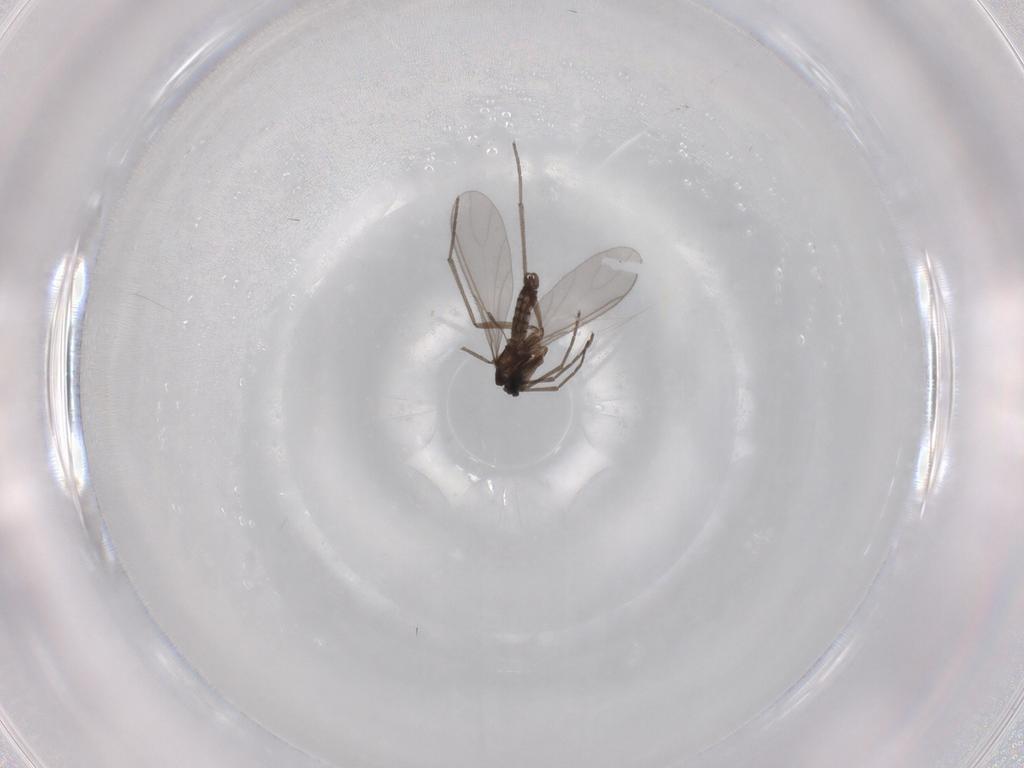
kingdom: Animalia
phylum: Arthropoda
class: Insecta
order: Diptera
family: Sciaridae
